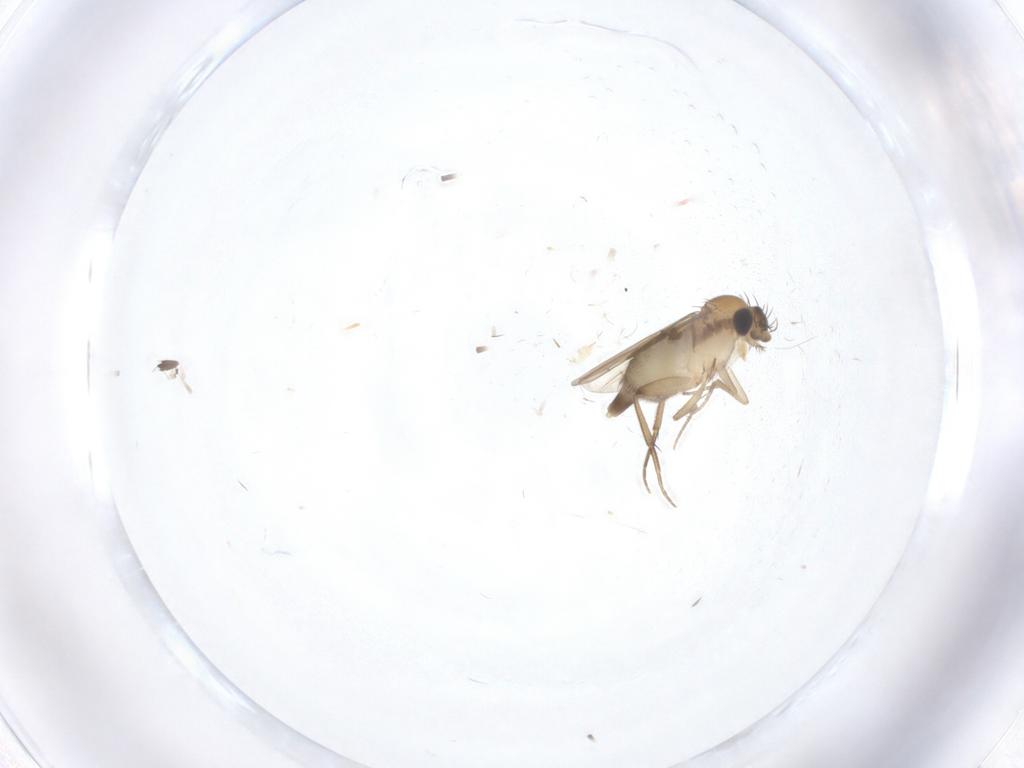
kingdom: Animalia
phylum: Arthropoda
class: Insecta
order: Diptera
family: Phoridae
